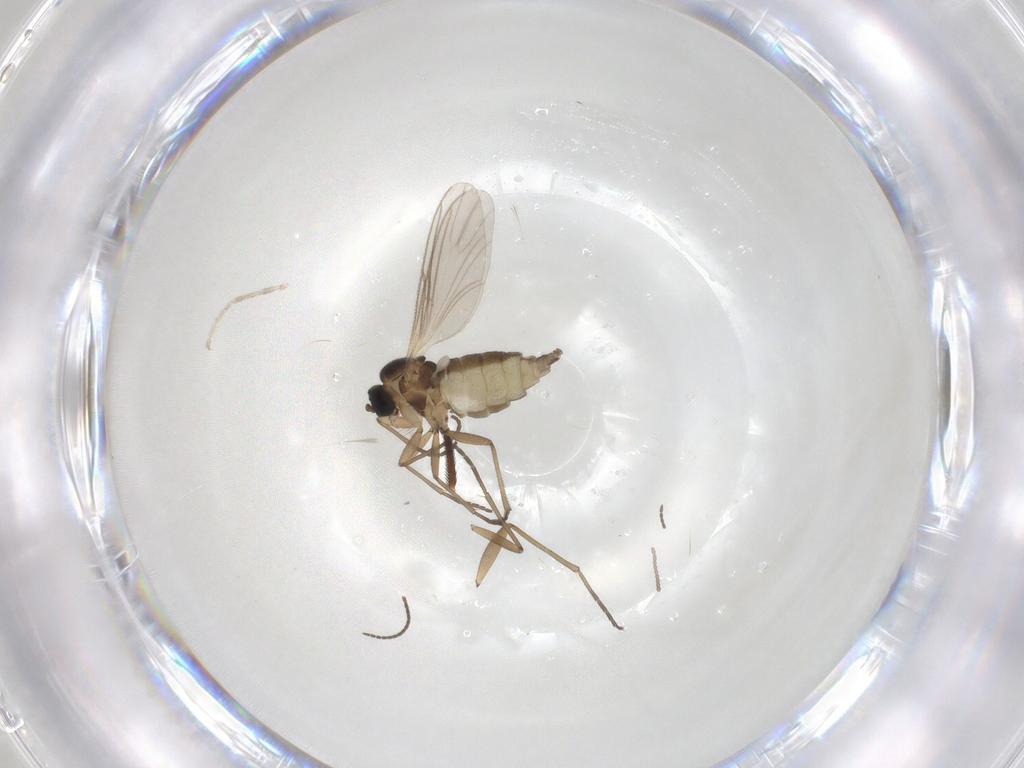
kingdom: Animalia
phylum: Arthropoda
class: Insecta
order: Diptera
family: Cecidomyiidae
